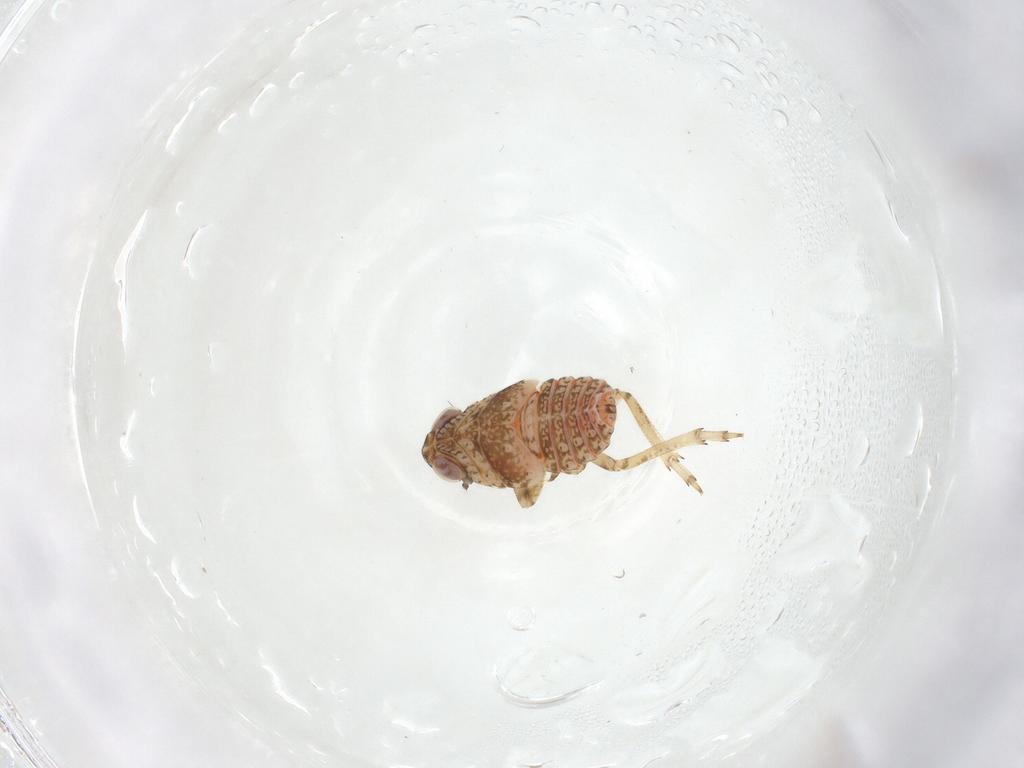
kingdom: Animalia
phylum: Arthropoda
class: Insecta
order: Hemiptera
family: Issidae
